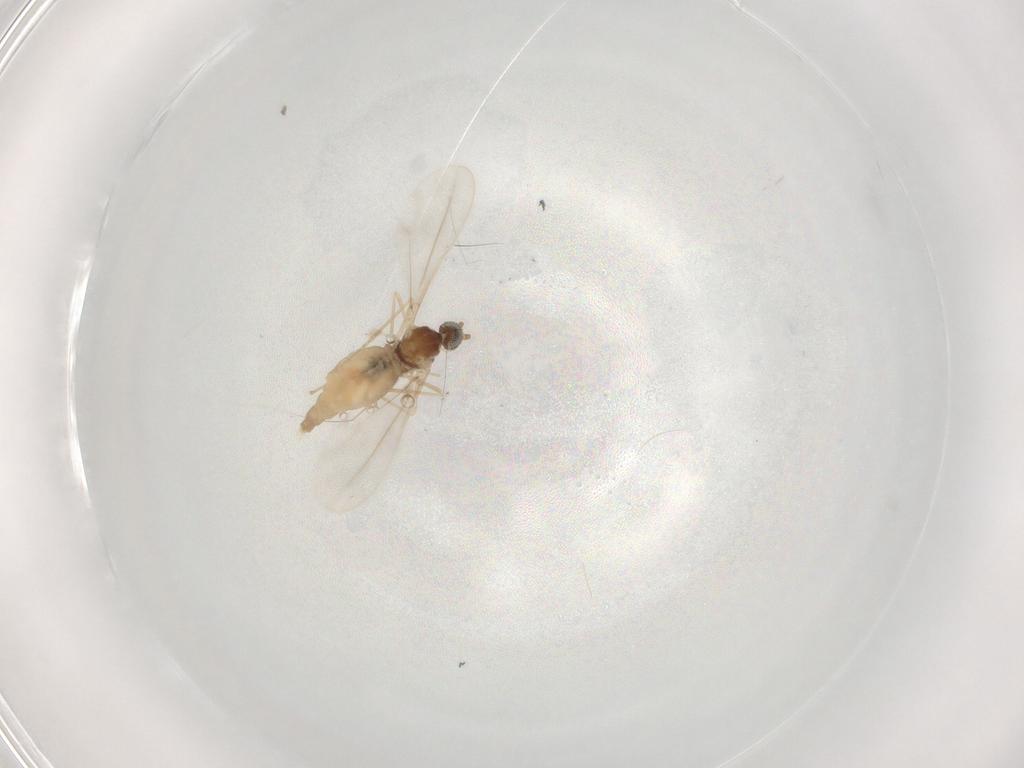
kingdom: Animalia
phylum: Arthropoda
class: Insecta
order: Diptera
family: Cecidomyiidae
